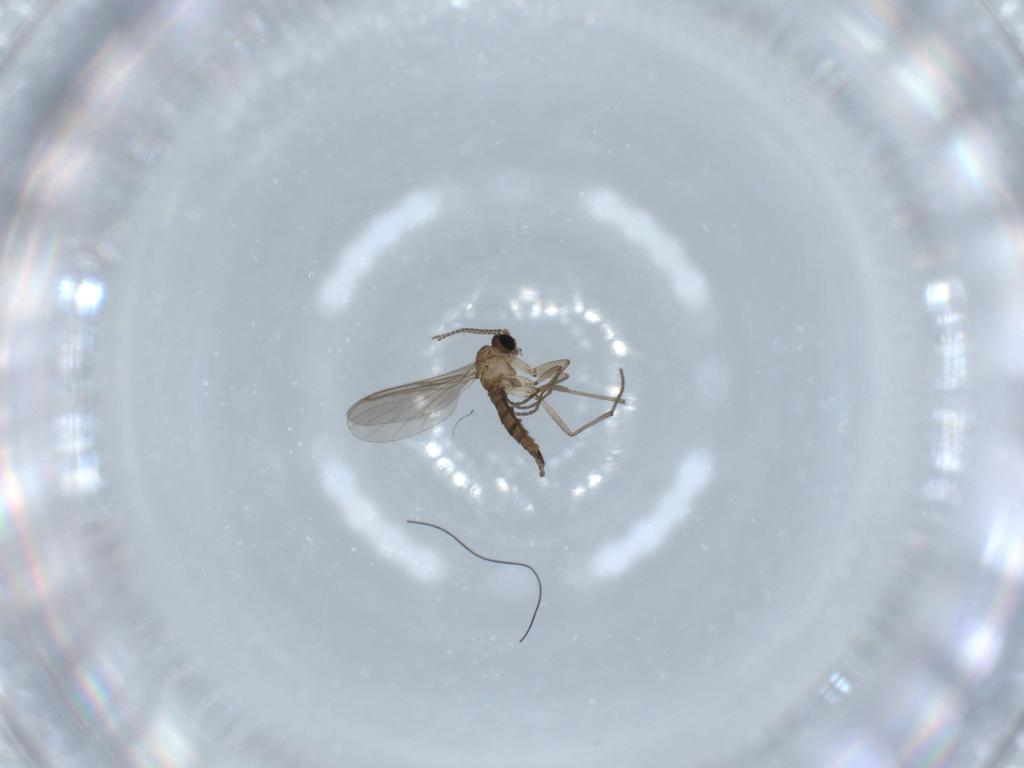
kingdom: Animalia
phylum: Arthropoda
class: Insecta
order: Diptera
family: Sciaridae
